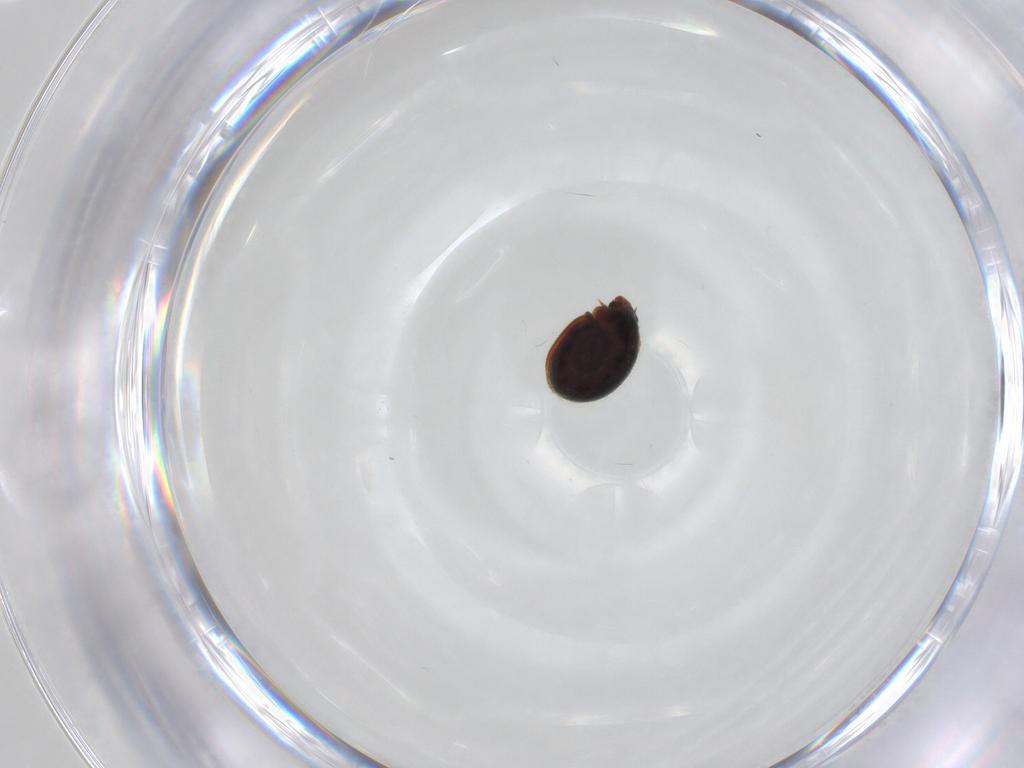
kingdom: Animalia
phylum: Arthropoda
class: Insecta
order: Coleoptera
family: Coccinellidae
